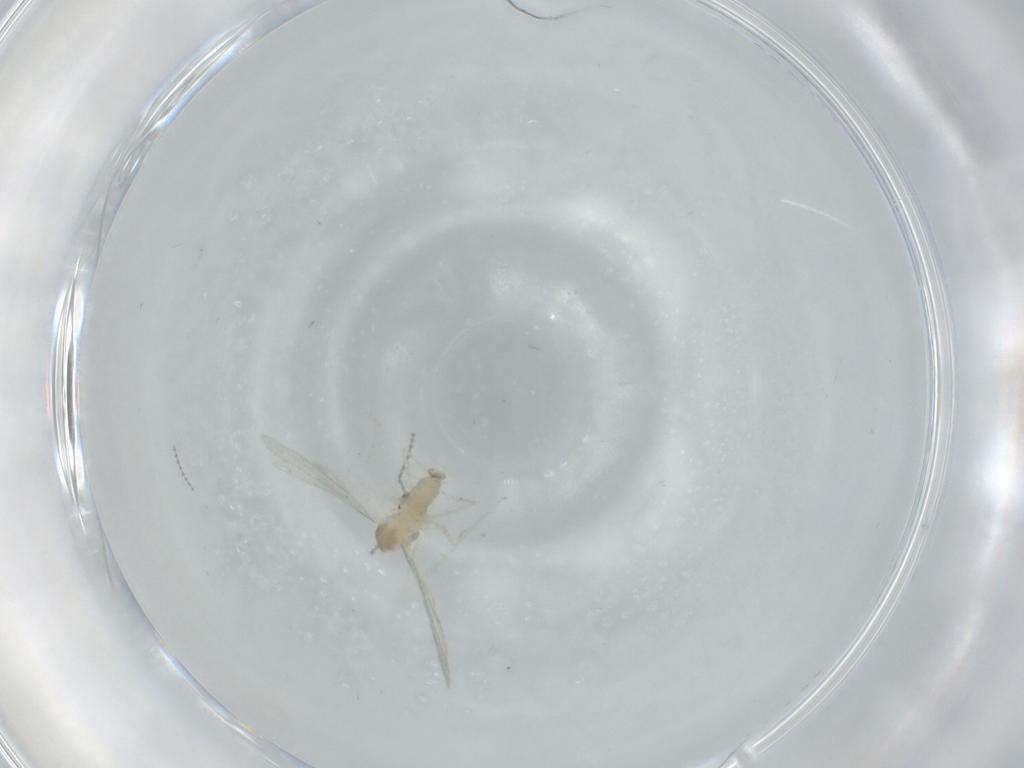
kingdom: Animalia
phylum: Arthropoda
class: Insecta
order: Diptera
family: Cecidomyiidae
